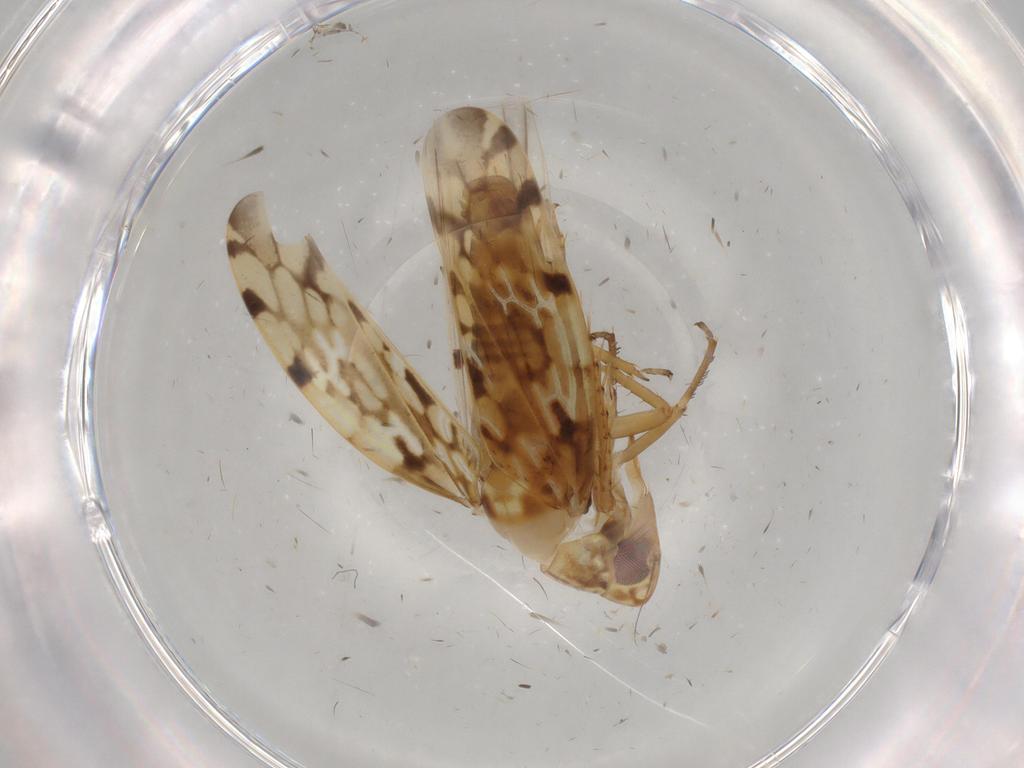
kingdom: Animalia
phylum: Arthropoda
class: Insecta
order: Hemiptera
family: Cicadellidae
